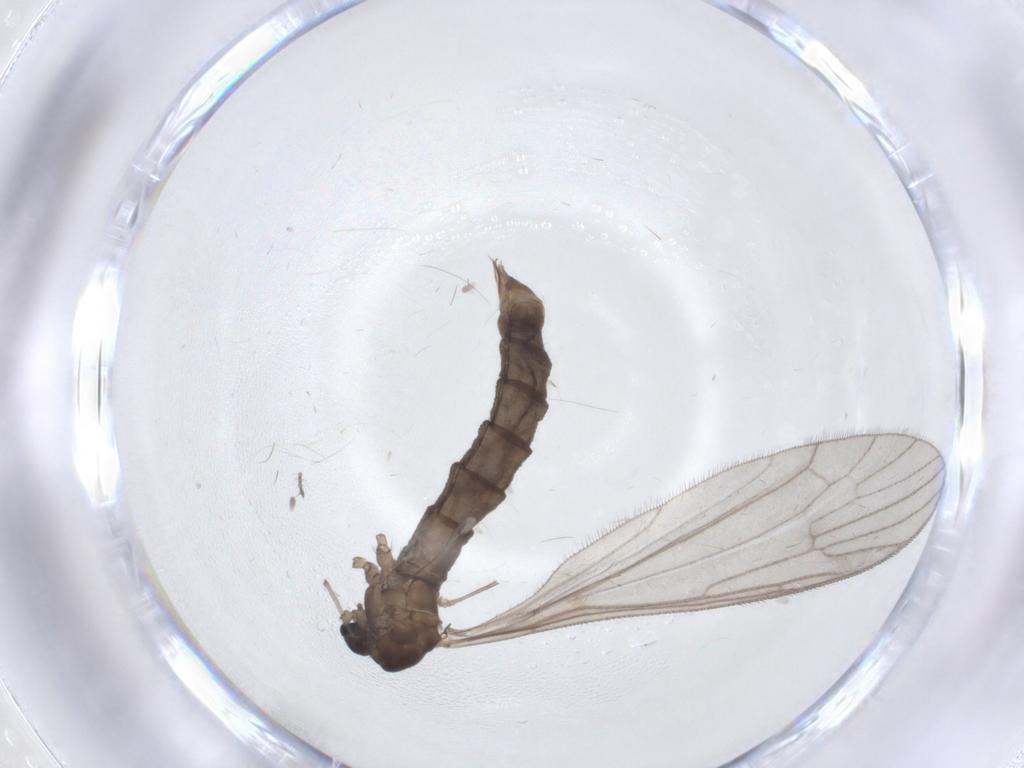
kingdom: Animalia
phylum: Arthropoda
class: Insecta
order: Diptera
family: Limoniidae
